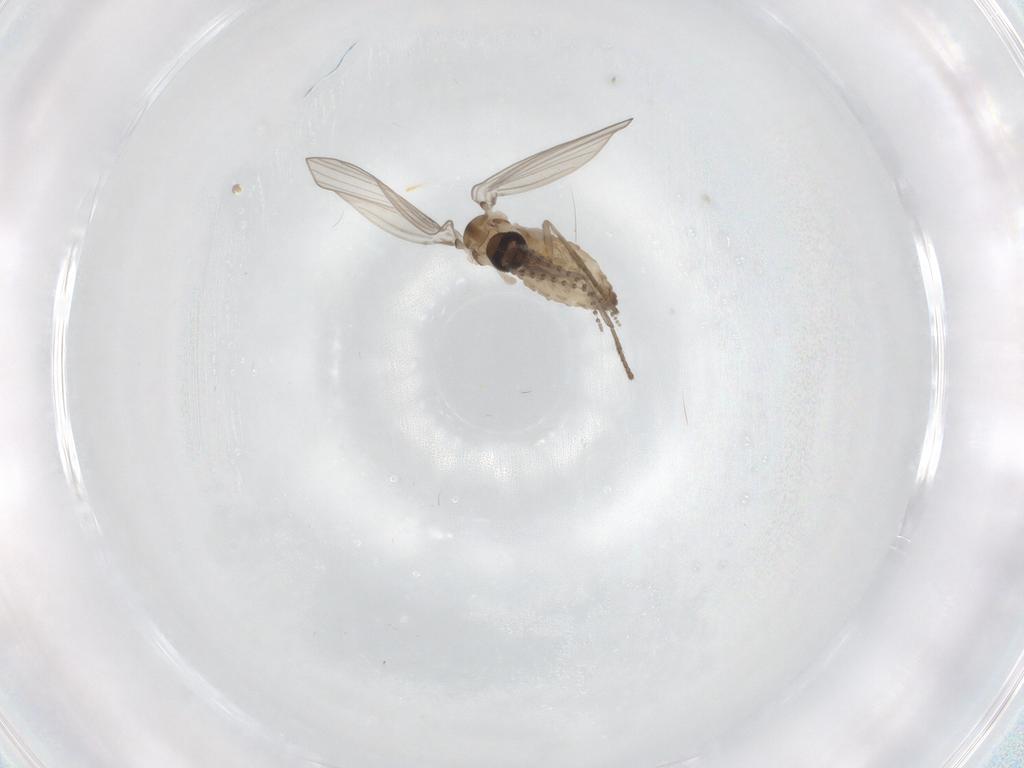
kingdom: Animalia
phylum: Arthropoda
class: Insecta
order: Diptera
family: Psychodidae
